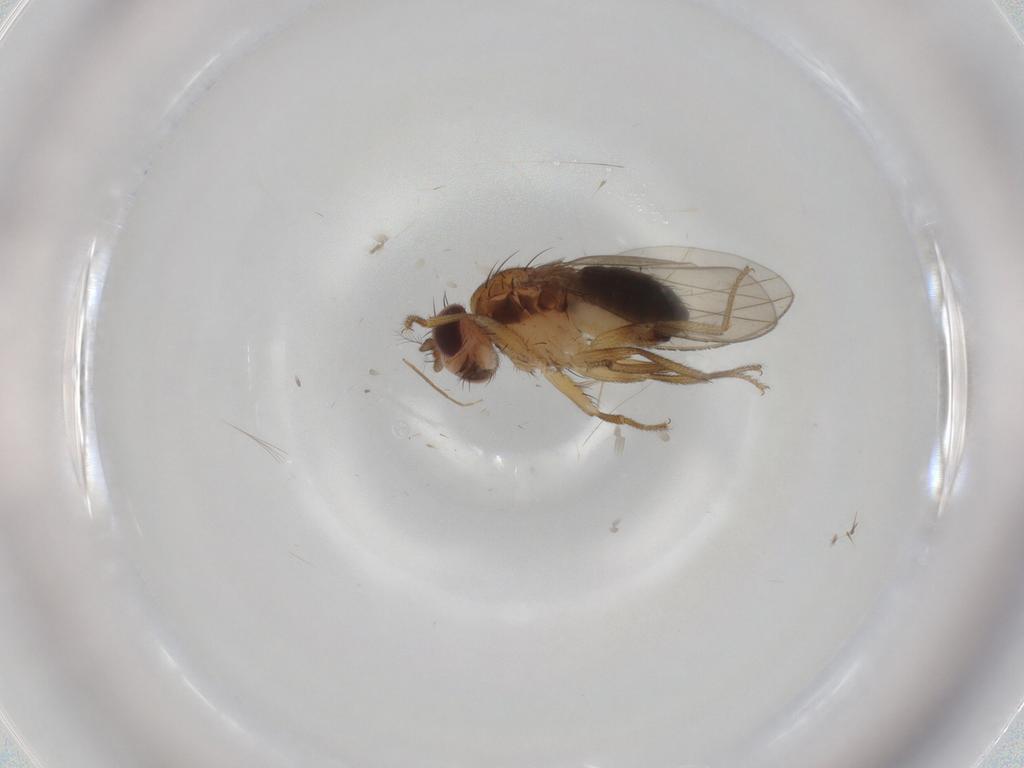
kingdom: Animalia
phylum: Arthropoda
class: Insecta
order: Diptera
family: Drosophilidae
